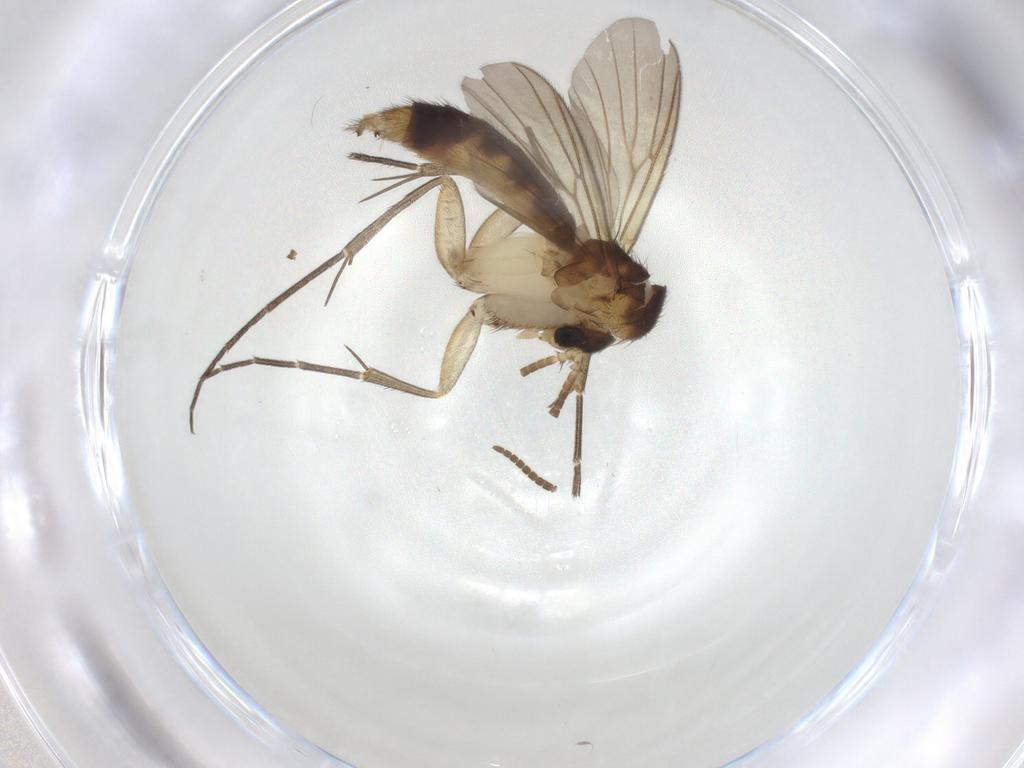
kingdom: Animalia
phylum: Arthropoda
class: Insecta
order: Diptera
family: Mycetophilidae
